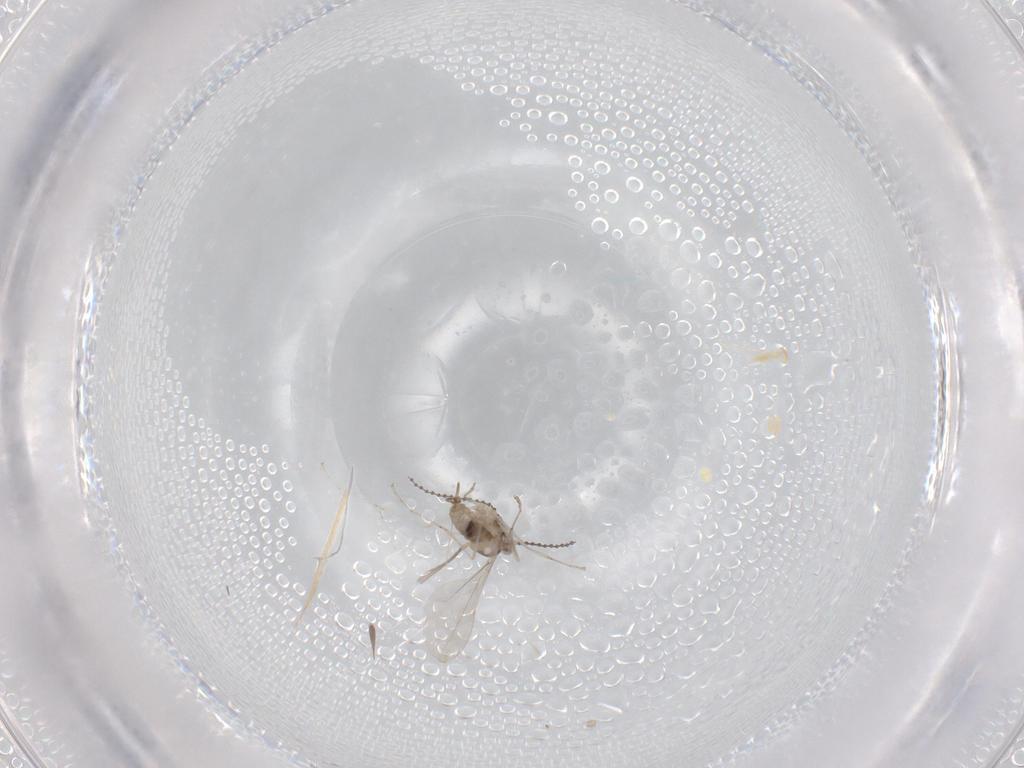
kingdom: Animalia
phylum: Arthropoda
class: Insecta
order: Diptera
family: Cecidomyiidae
